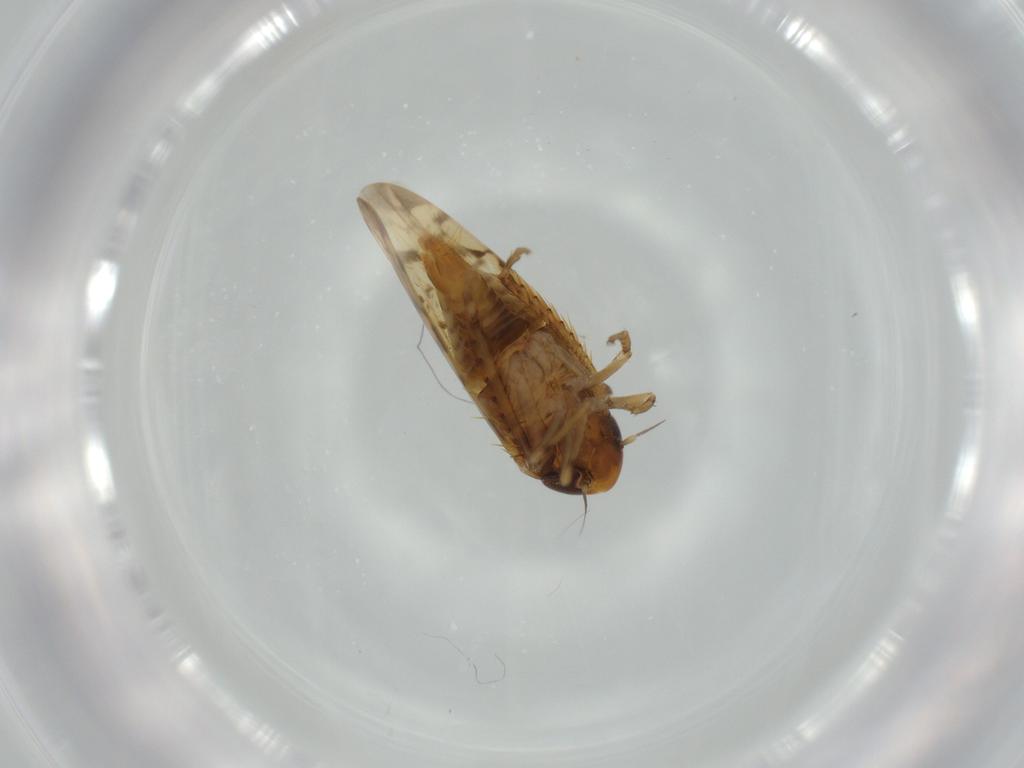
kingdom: Animalia
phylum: Arthropoda
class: Insecta
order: Hemiptera
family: Cicadellidae
